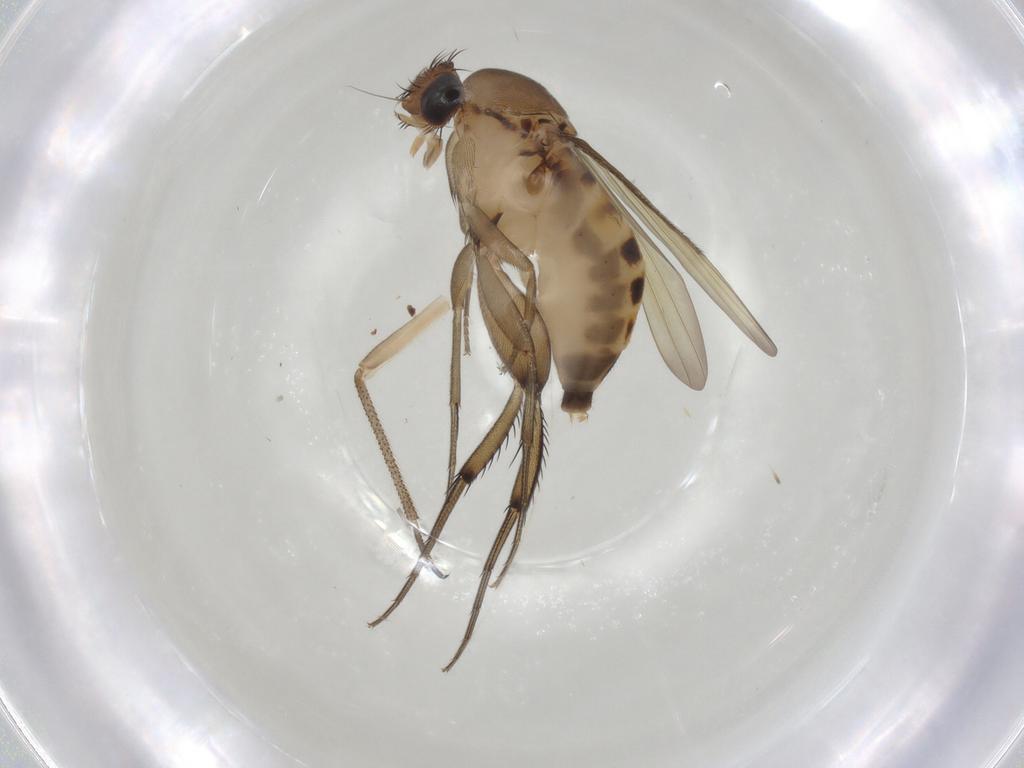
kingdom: Animalia
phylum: Arthropoda
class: Insecta
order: Diptera
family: Phoridae
